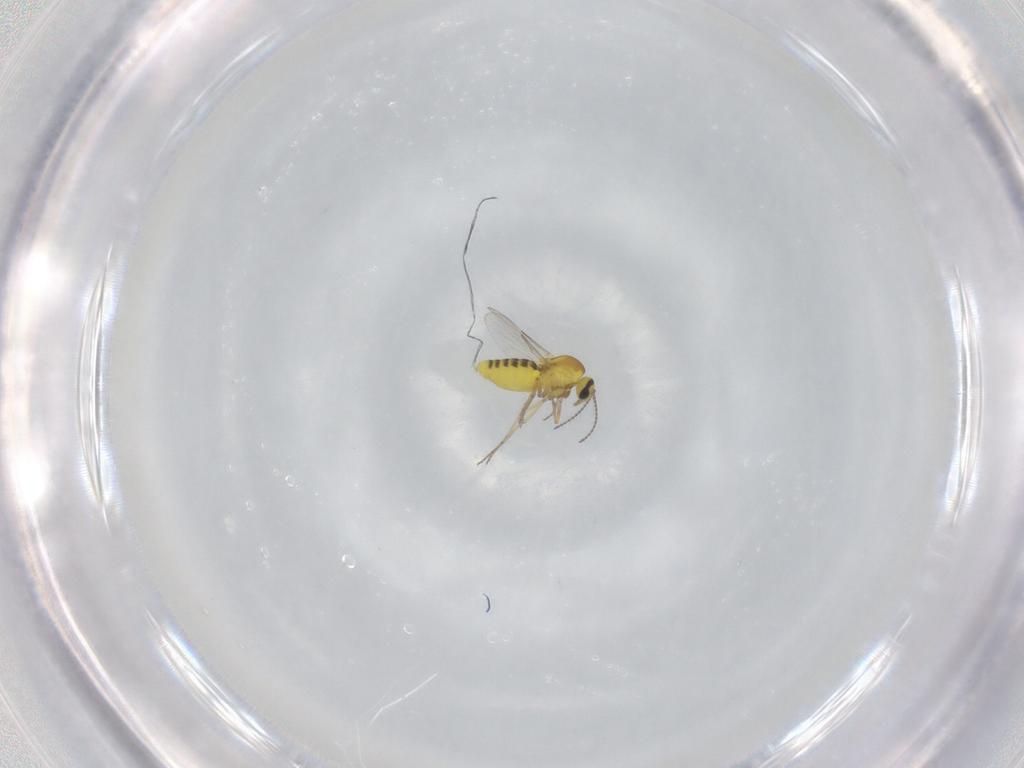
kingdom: Animalia
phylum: Arthropoda
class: Insecta
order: Diptera
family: Ceratopogonidae
